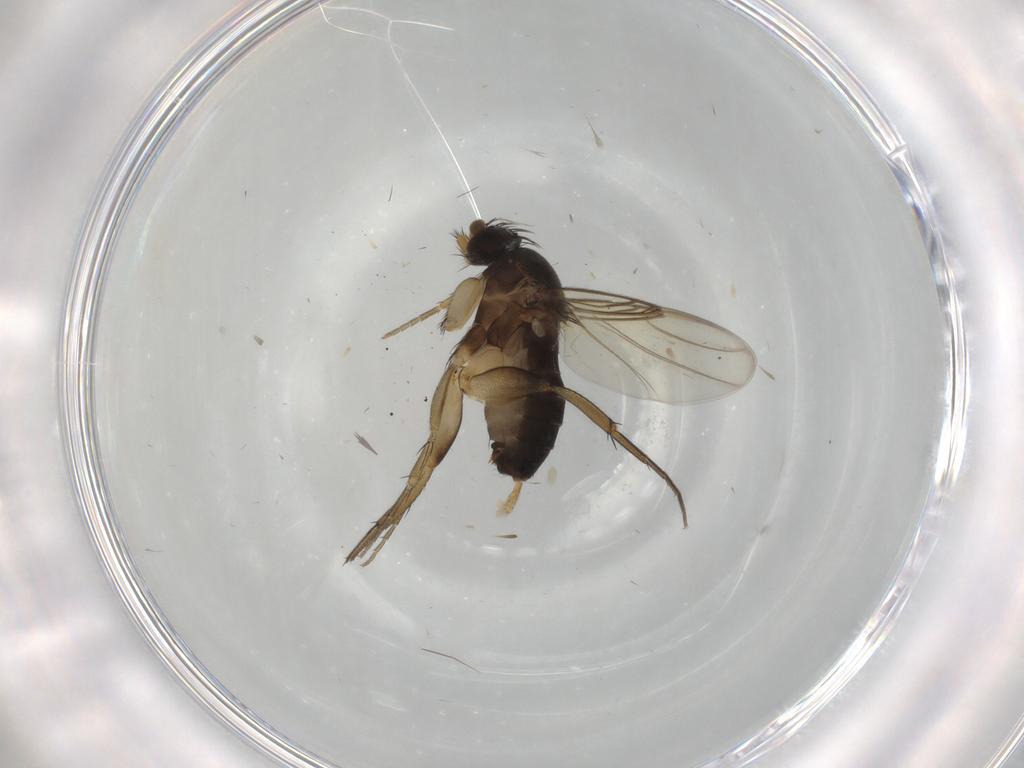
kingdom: Animalia
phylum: Arthropoda
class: Insecta
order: Diptera
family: Phoridae
